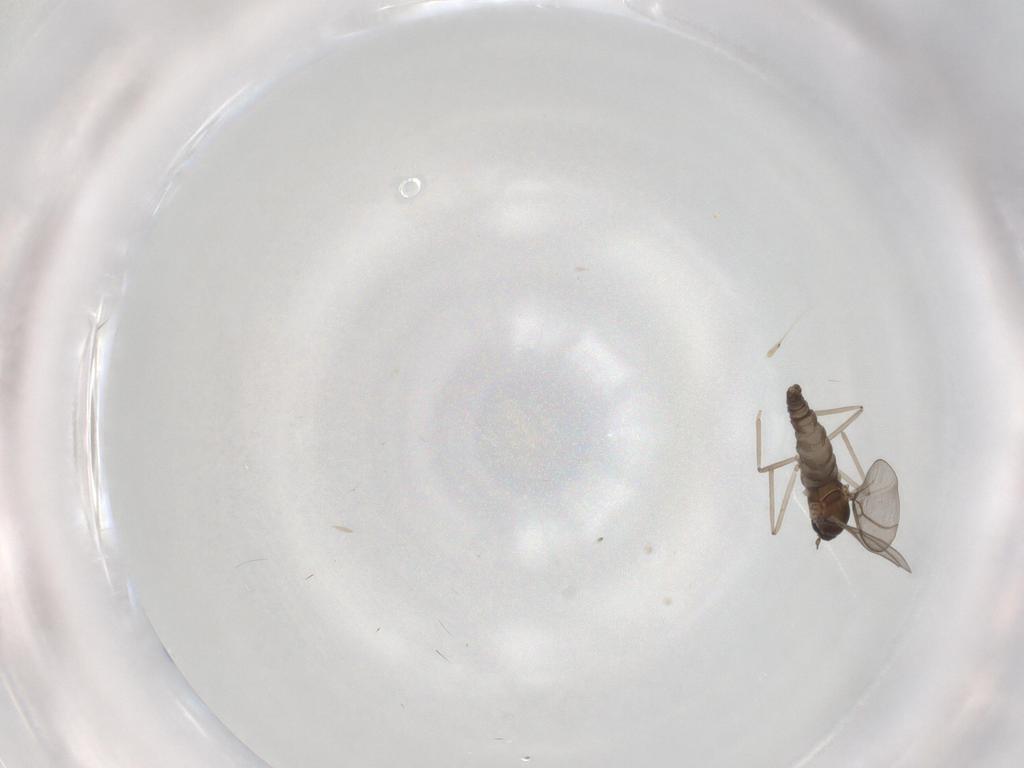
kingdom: Animalia
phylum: Arthropoda
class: Insecta
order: Diptera
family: Cecidomyiidae
